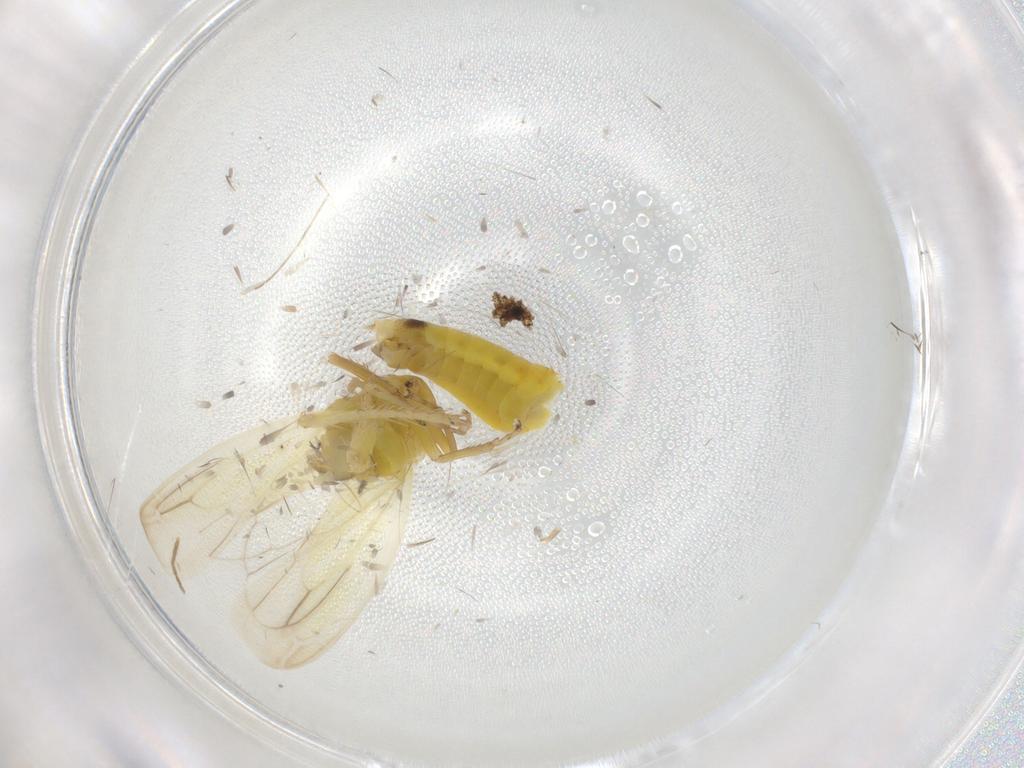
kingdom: Animalia
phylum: Arthropoda
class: Insecta
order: Hemiptera
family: Cicadellidae
